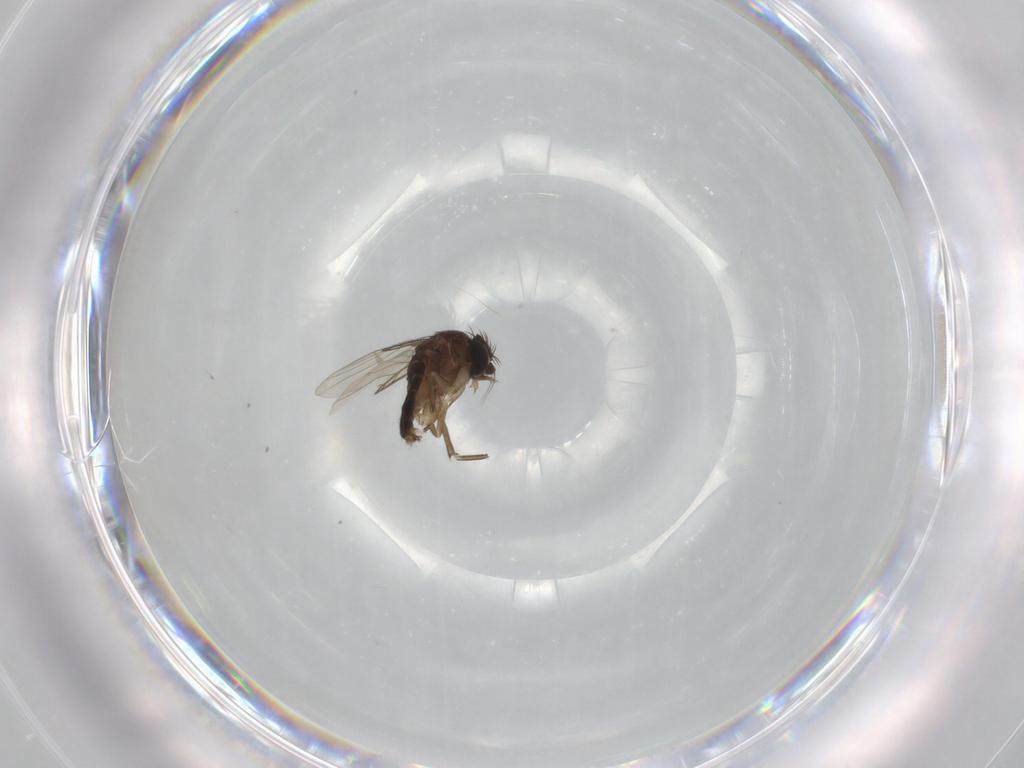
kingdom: Animalia
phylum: Arthropoda
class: Insecta
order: Diptera
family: Phoridae
